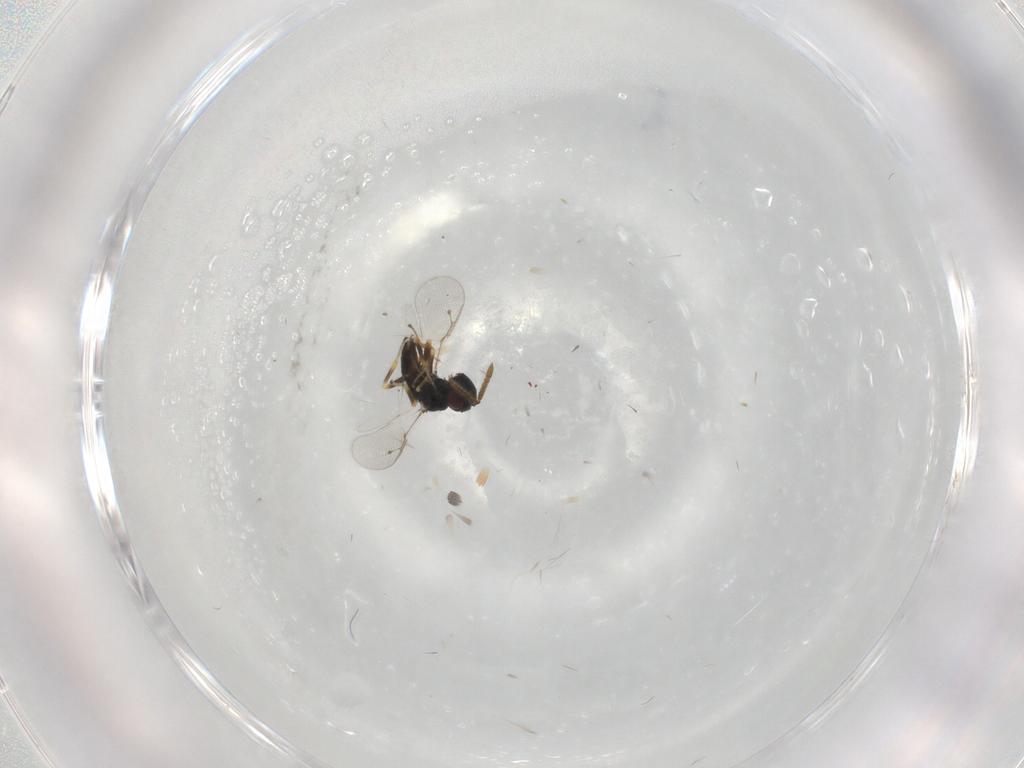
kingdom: Animalia
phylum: Arthropoda
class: Insecta
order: Hymenoptera
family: Pteromalidae
